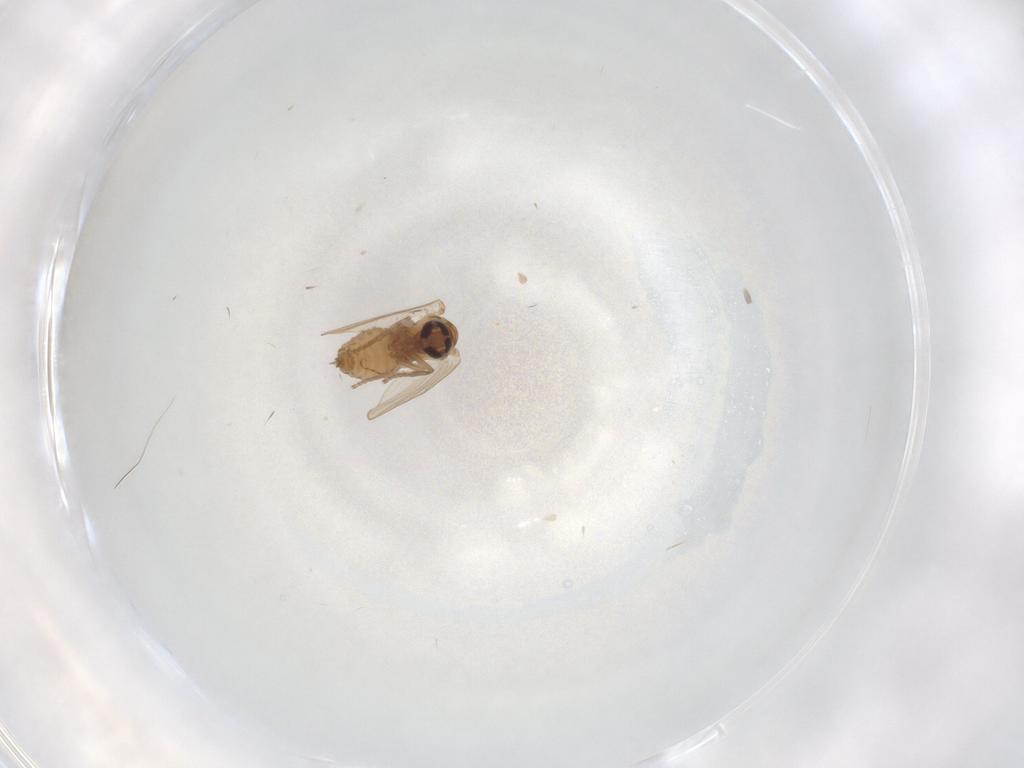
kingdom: Animalia
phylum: Arthropoda
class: Insecta
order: Diptera
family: Psychodidae
